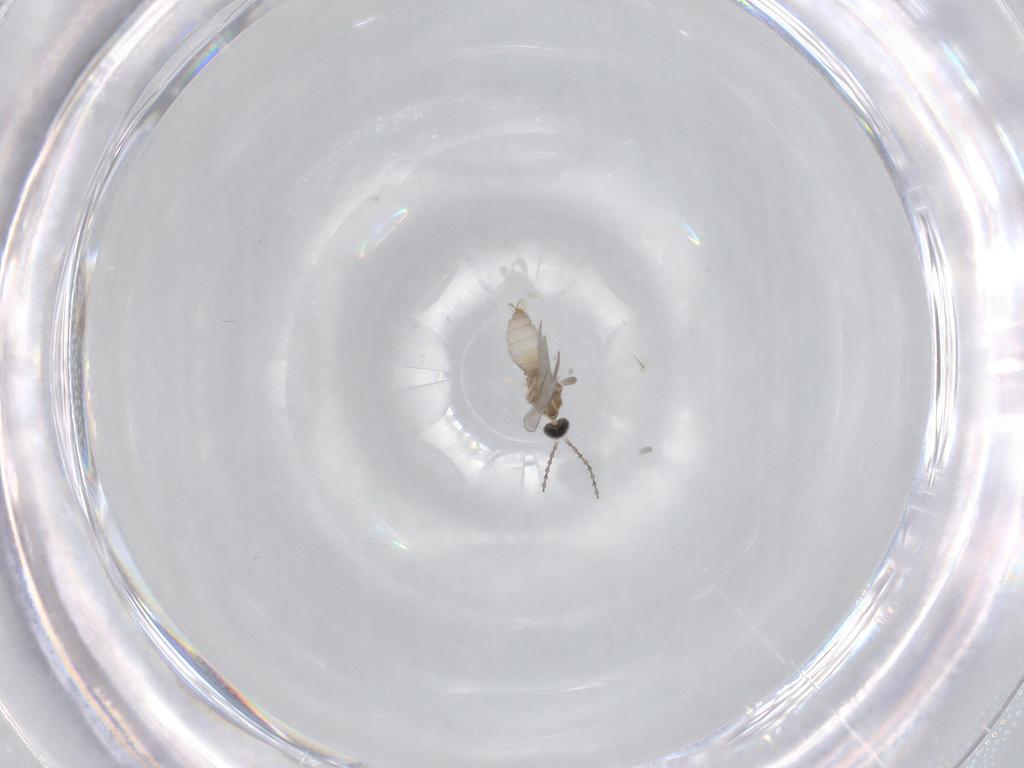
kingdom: Animalia
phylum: Arthropoda
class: Insecta
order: Diptera
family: Cecidomyiidae
